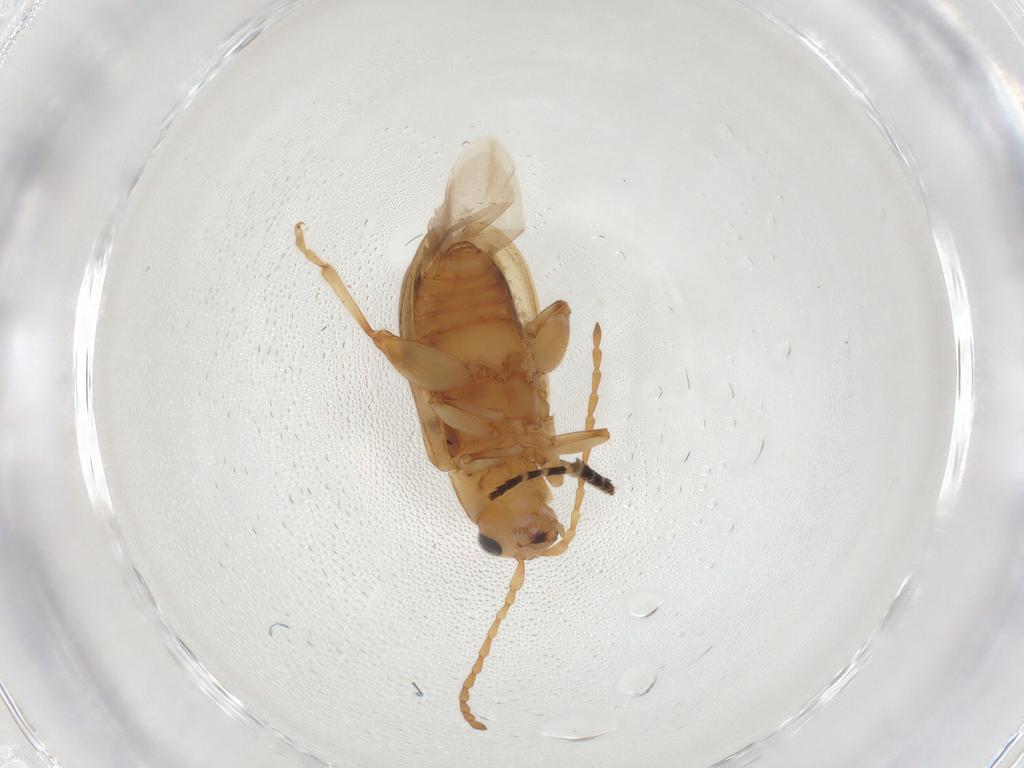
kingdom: Animalia
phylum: Arthropoda
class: Insecta
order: Coleoptera
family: Chrysomelidae
